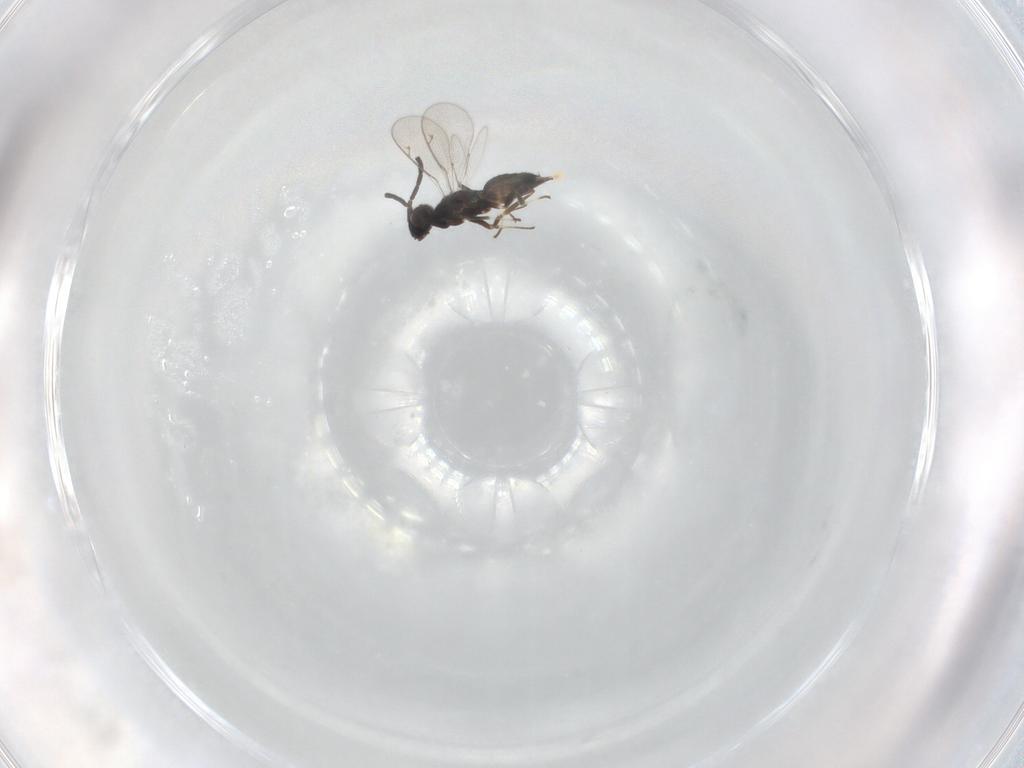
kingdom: Animalia
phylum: Arthropoda
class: Insecta
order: Hymenoptera
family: Eupelmidae
